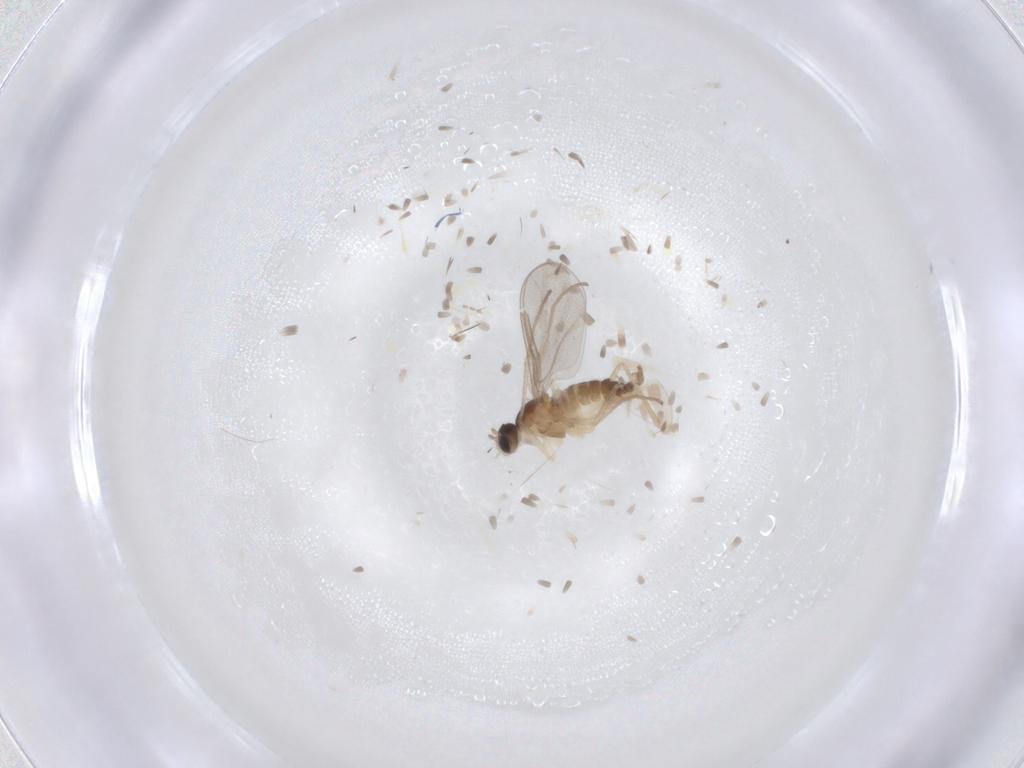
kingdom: Animalia
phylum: Arthropoda
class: Insecta
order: Diptera
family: Cecidomyiidae
